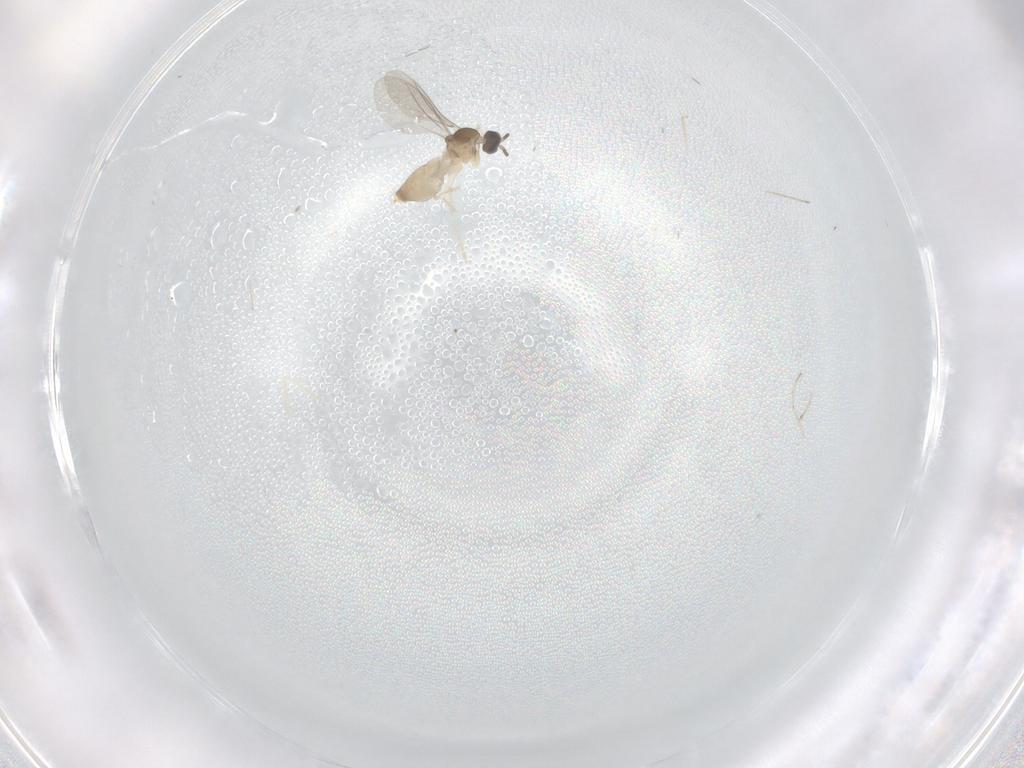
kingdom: Animalia
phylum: Arthropoda
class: Insecta
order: Diptera
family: Cecidomyiidae
